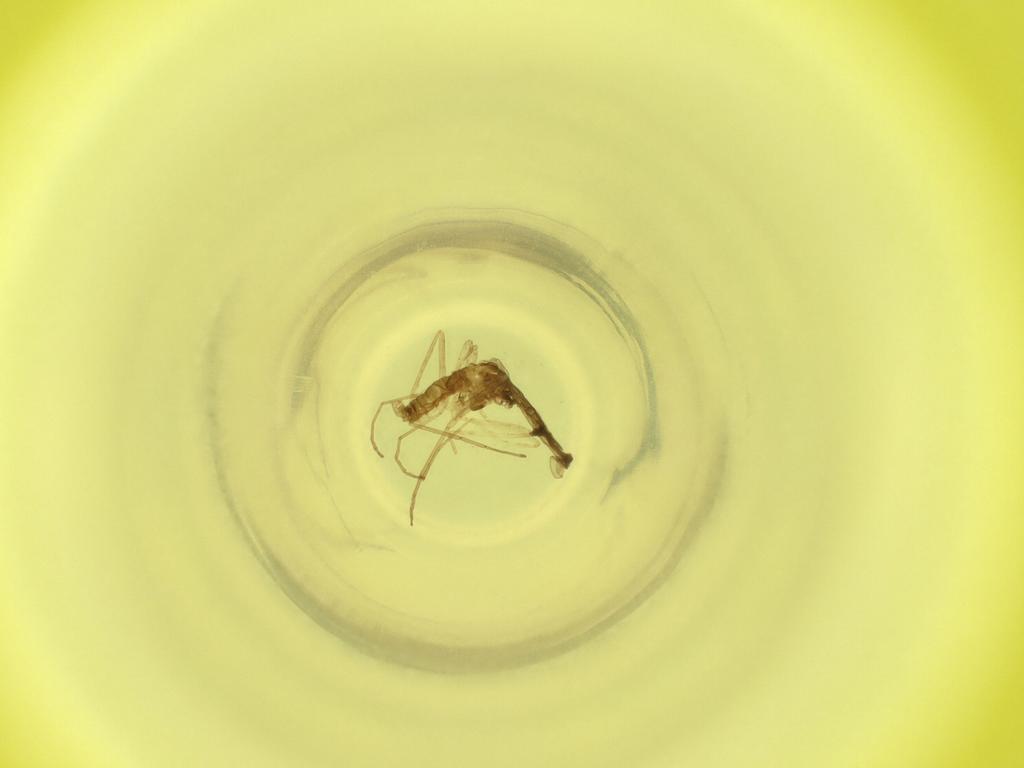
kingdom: Animalia
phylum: Arthropoda
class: Insecta
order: Diptera
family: Cecidomyiidae
